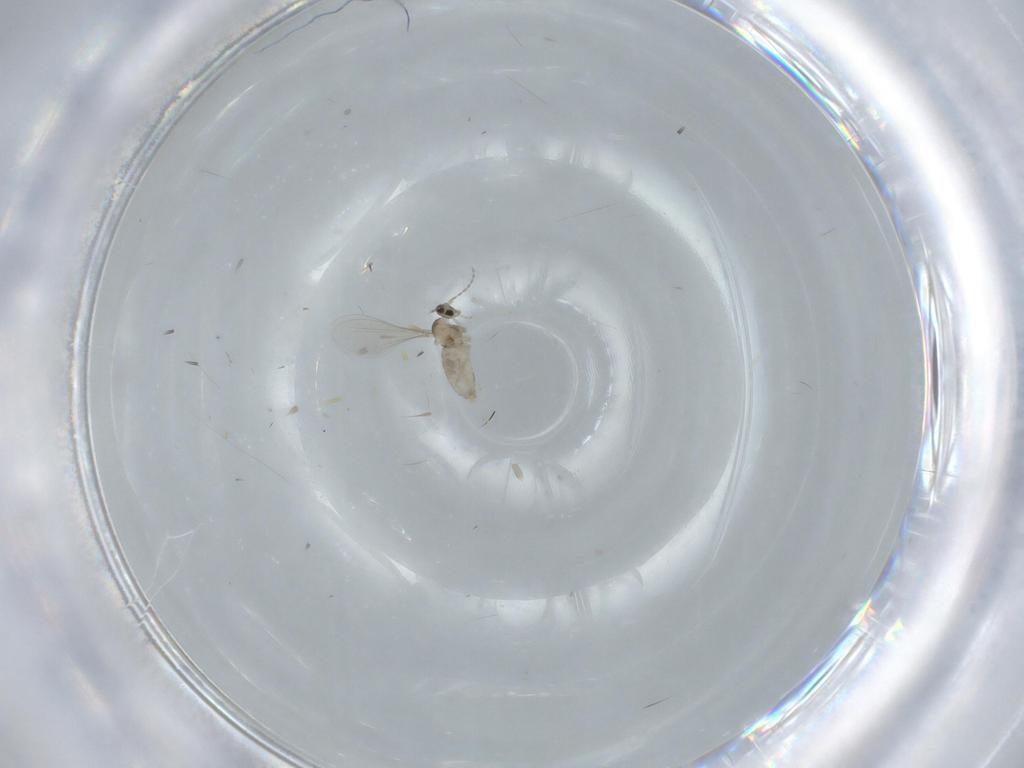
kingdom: Animalia
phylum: Arthropoda
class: Insecta
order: Diptera
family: Cecidomyiidae
